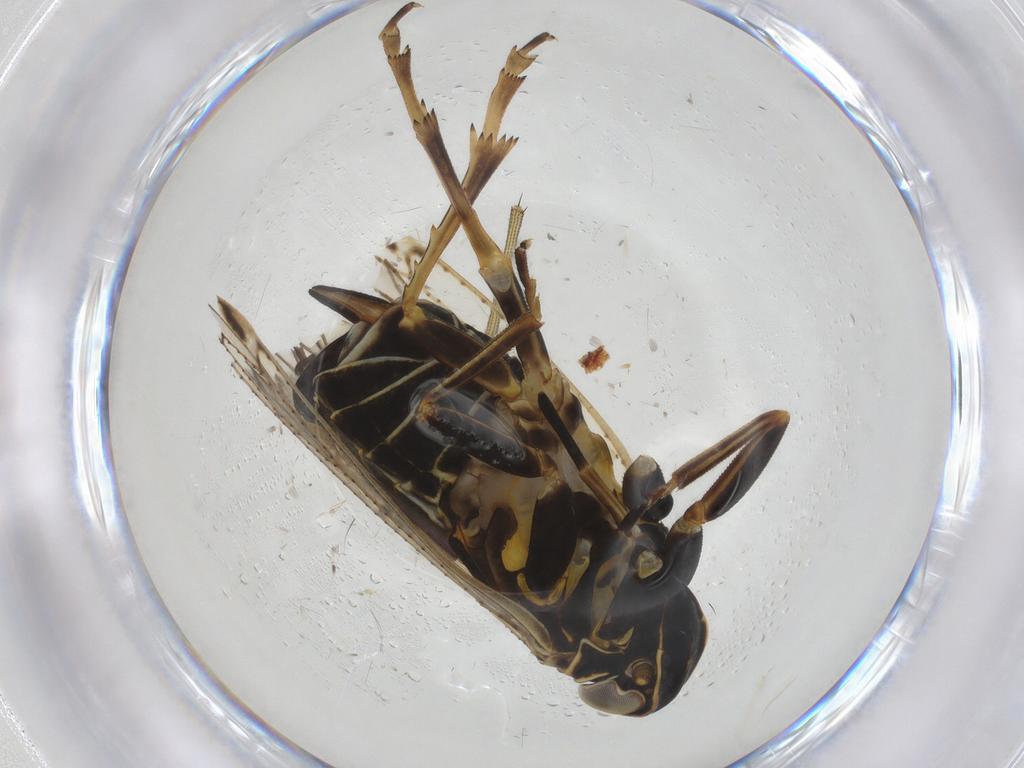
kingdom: Animalia
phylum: Arthropoda
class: Insecta
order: Hemiptera
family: Cixiidae
